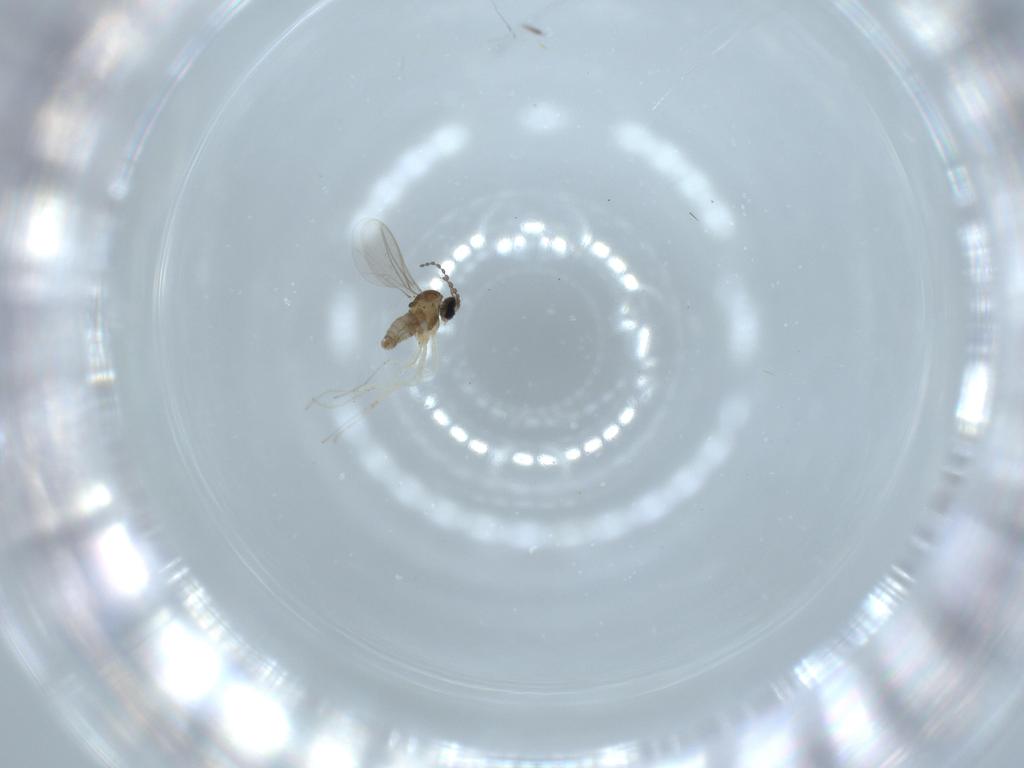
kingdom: Animalia
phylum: Arthropoda
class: Insecta
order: Diptera
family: Cecidomyiidae
